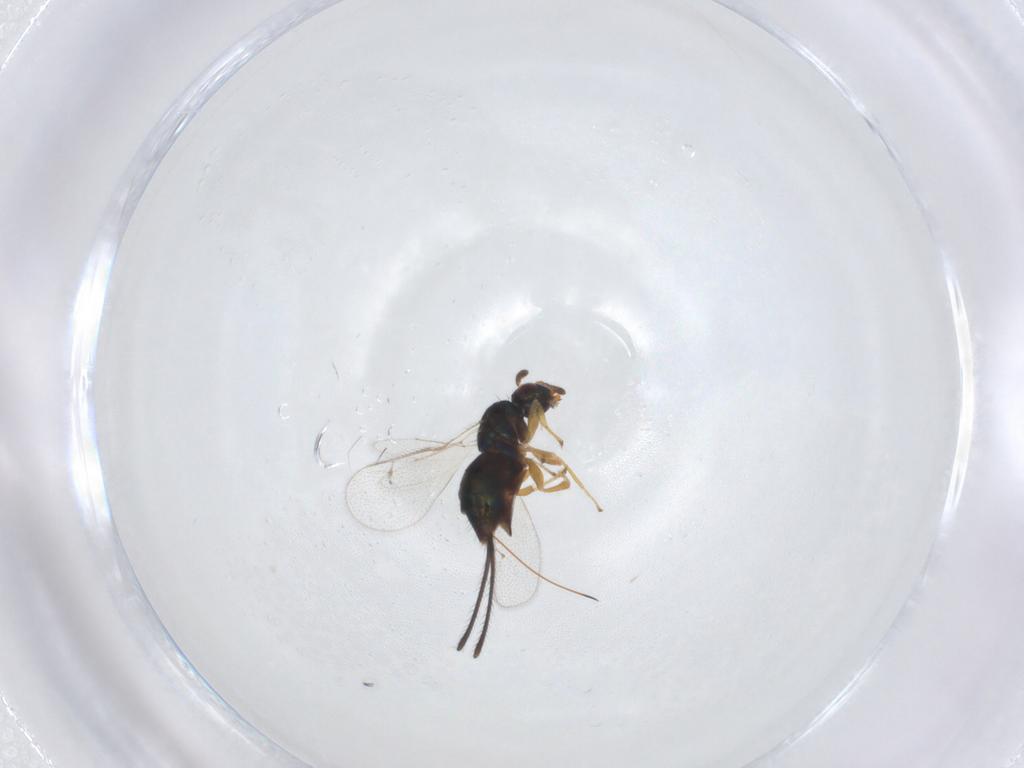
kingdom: Animalia
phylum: Arthropoda
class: Insecta
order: Hymenoptera
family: Torymidae
